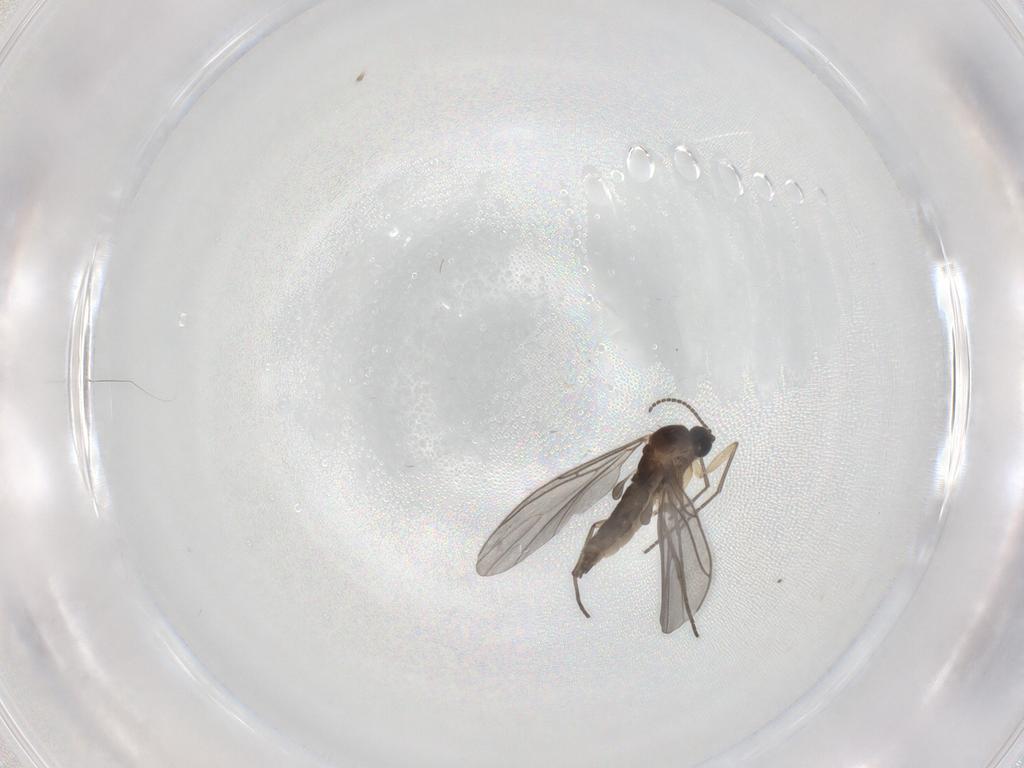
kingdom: Animalia
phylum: Arthropoda
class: Insecta
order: Diptera
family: Sciaridae
